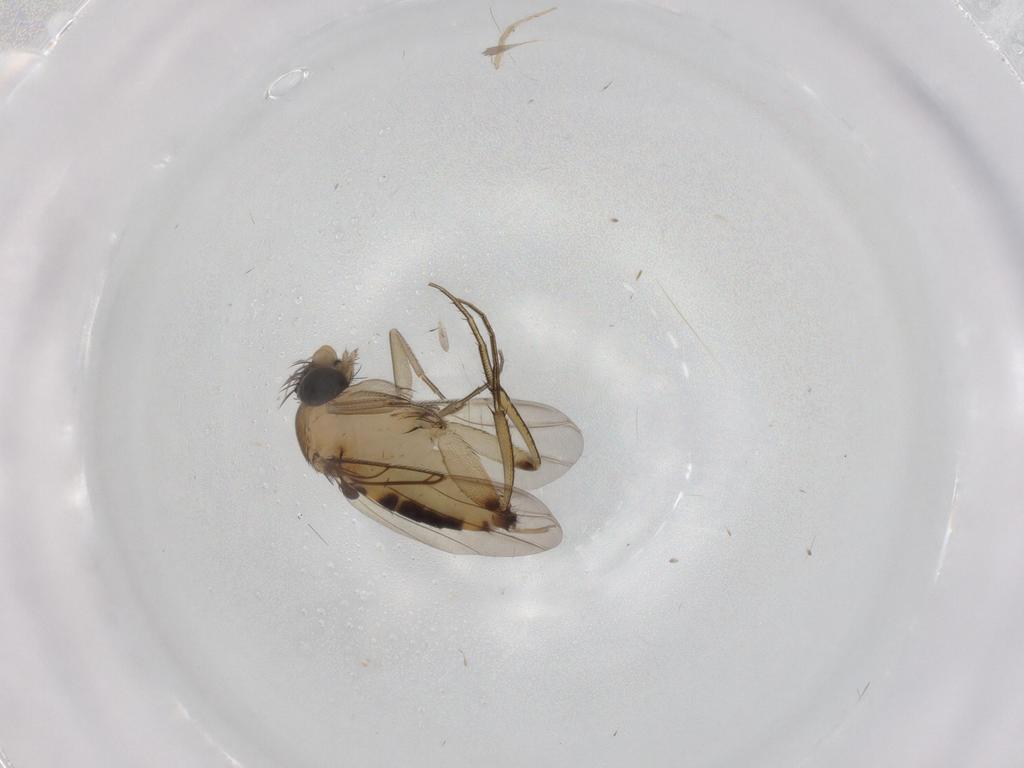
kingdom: Animalia
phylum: Arthropoda
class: Insecta
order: Diptera
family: Phoridae
